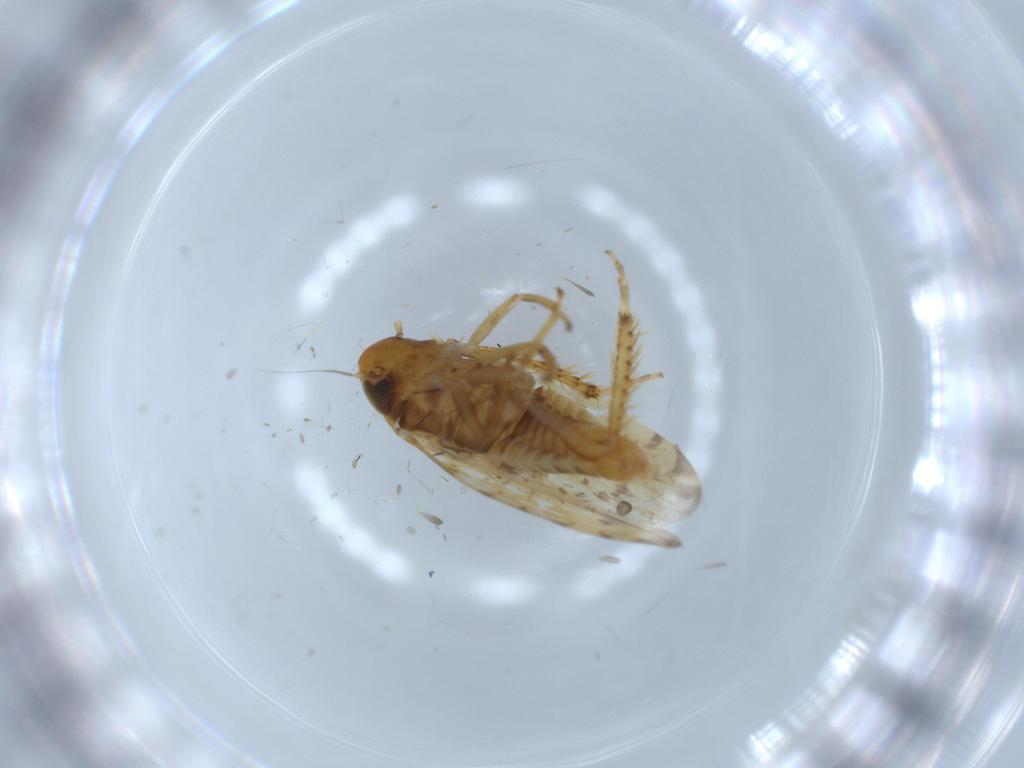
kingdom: Animalia
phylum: Arthropoda
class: Insecta
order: Hemiptera
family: Cicadellidae
